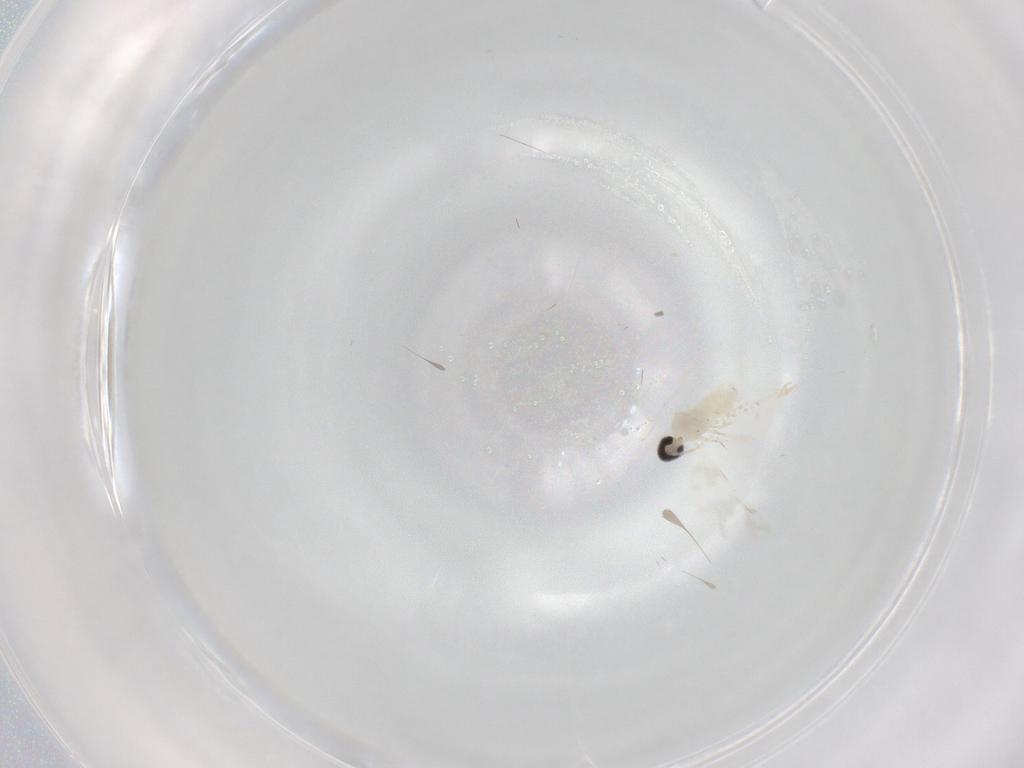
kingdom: Animalia
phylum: Arthropoda
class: Insecta
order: Diptera
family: Cecidomyiidae
